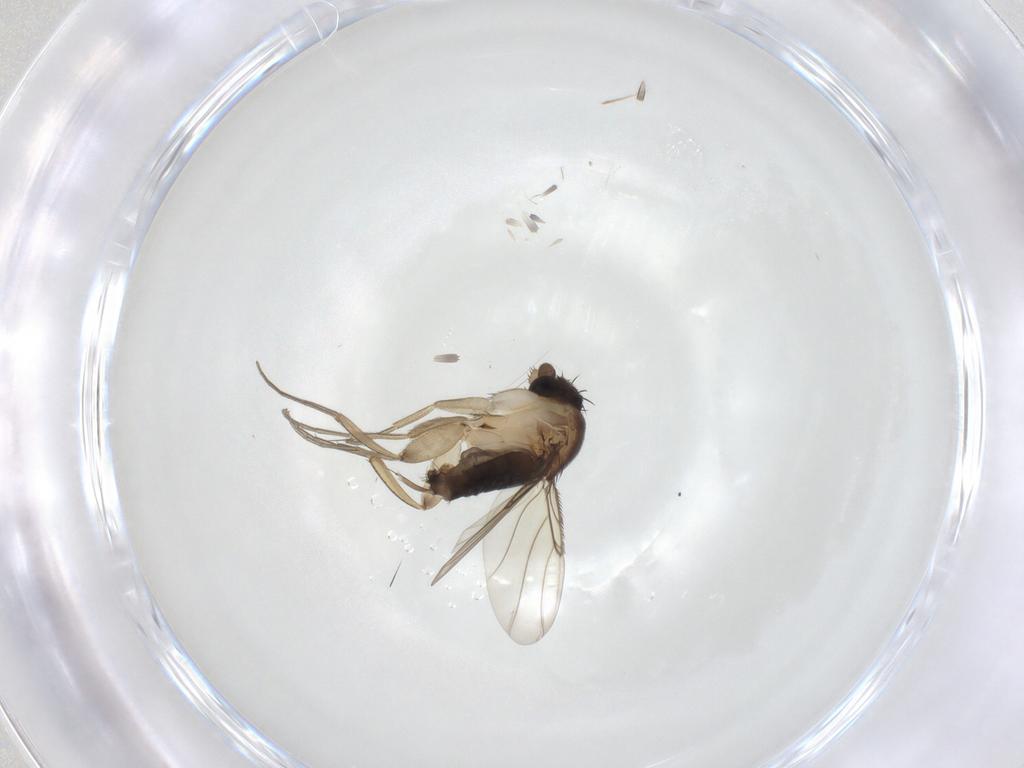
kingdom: Animalia
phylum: Arthropoda
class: Insecta
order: Diptera
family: Phoridae
